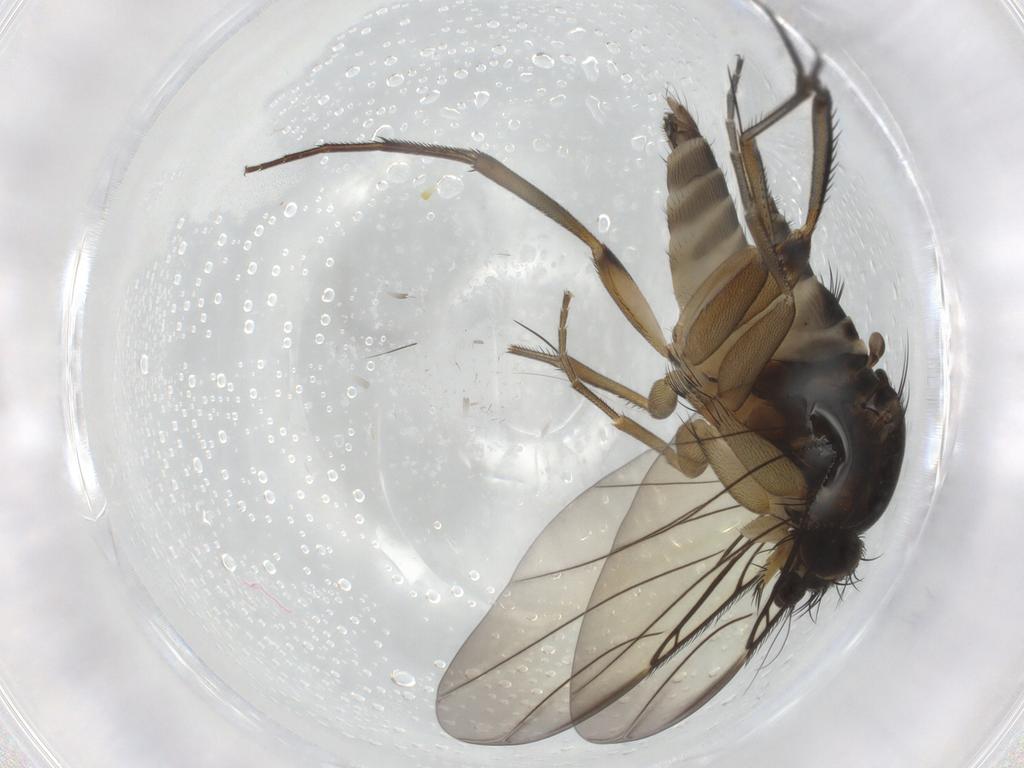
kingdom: Animalia
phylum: Arthropoda
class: Insecta
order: Diptera
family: Phoridae
